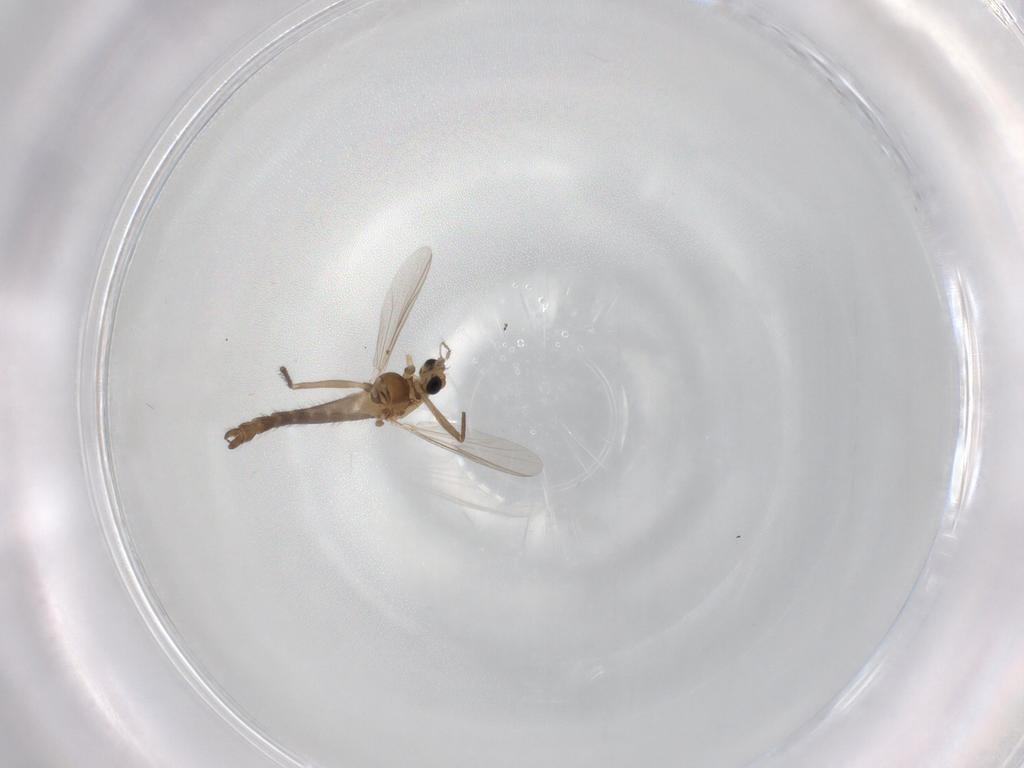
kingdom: Animalia
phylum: Arthropoda
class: Insecta
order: Diptera
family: Chironomidae
